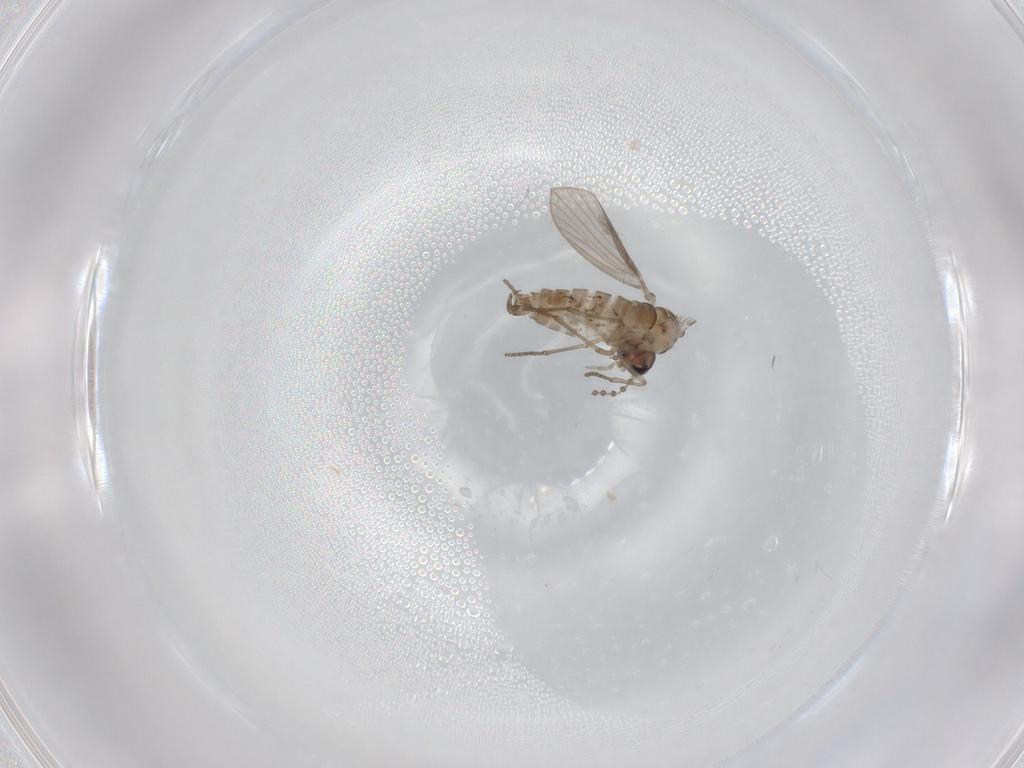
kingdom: Animalia
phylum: Arthropoda
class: Insecta
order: Diptera
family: Psychodidae
